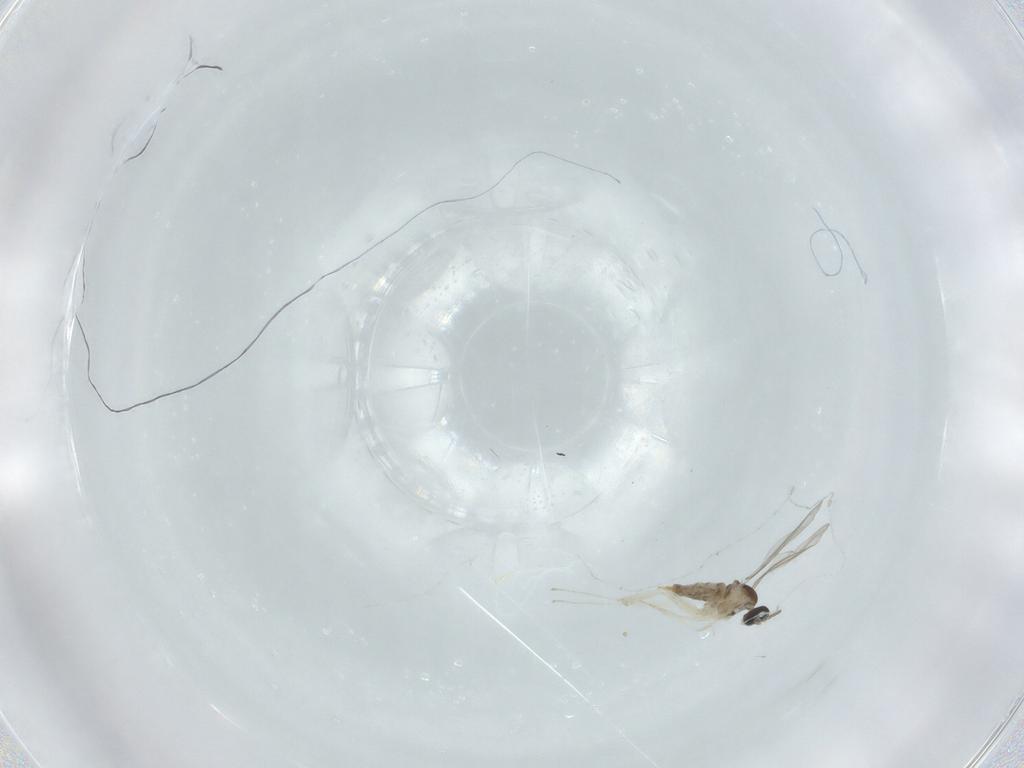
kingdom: Animalia
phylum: Arthropoda
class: Insecta
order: Diptera
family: Cecidomyiidae
